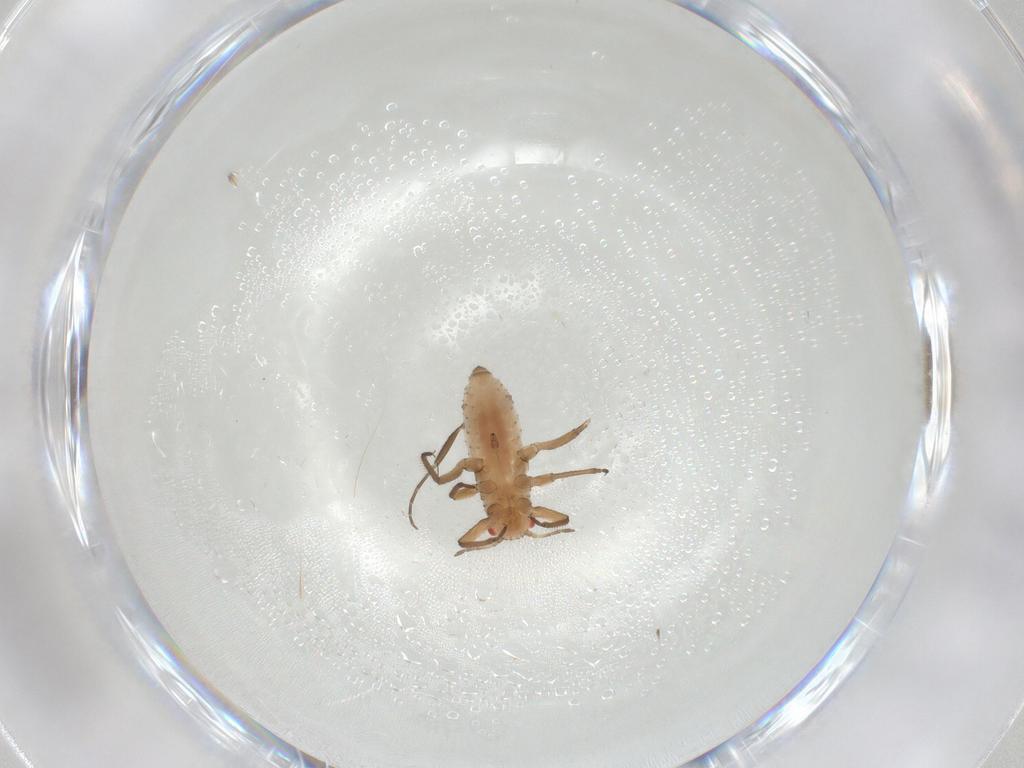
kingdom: Animalia
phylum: Arthropoda
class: Insecta
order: Hemiptera
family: Aphididae
